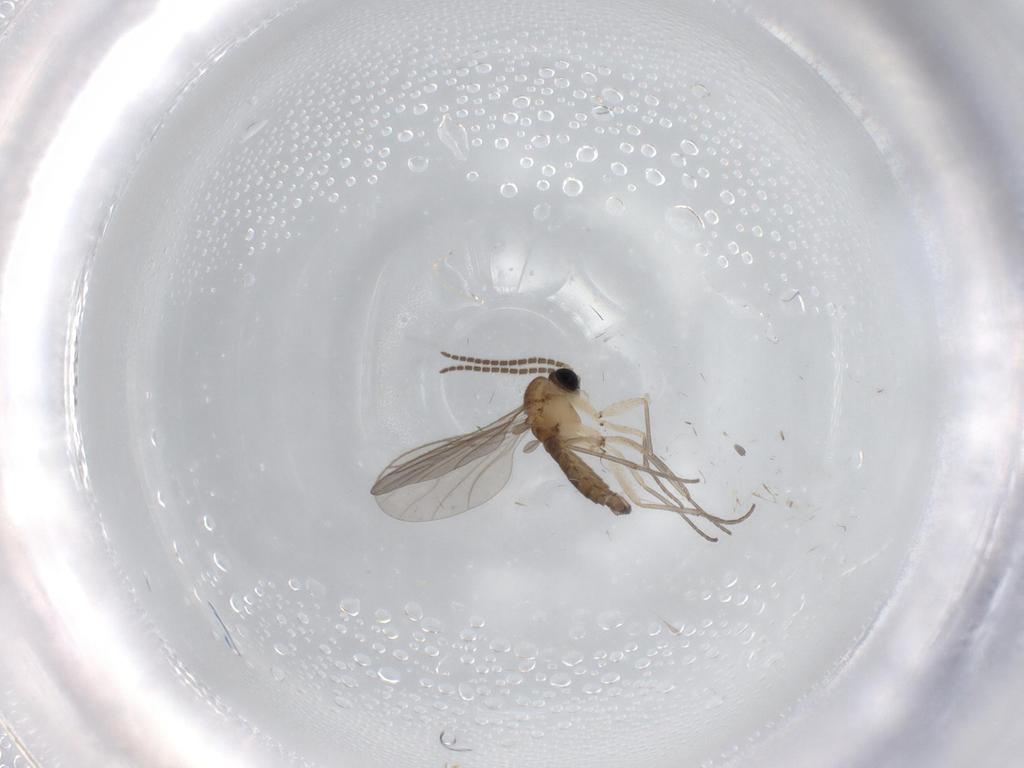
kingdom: Animalia
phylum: Arthropoda
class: Insecta
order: Diptera
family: Sciaridae
